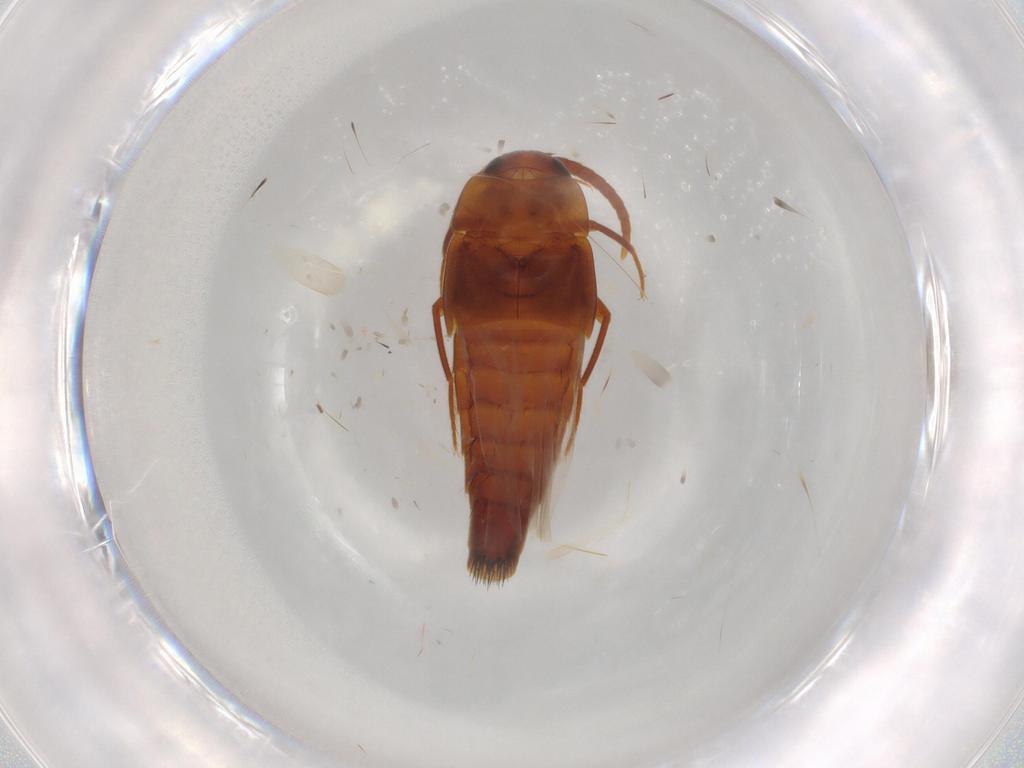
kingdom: Animalia
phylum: Arthropoda
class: Insecta
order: Coleoptera
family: Staphylinidae
